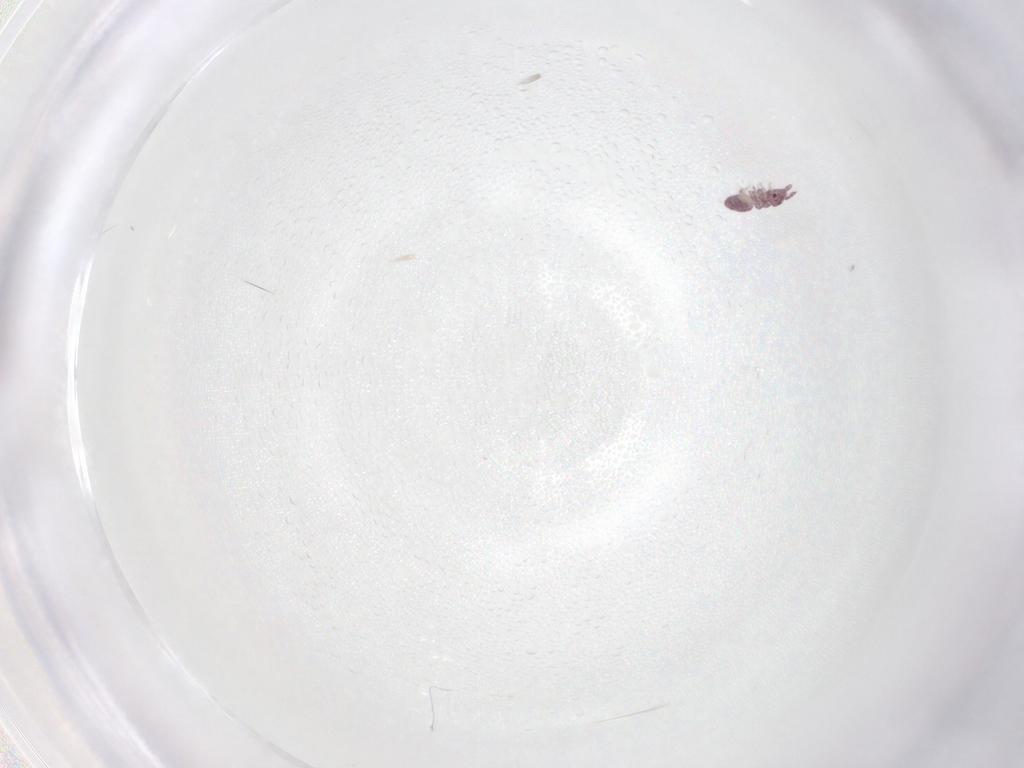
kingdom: Animalia
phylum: Arthropoda
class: Collembola
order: Poduromorpha
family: Hypogastruridae
